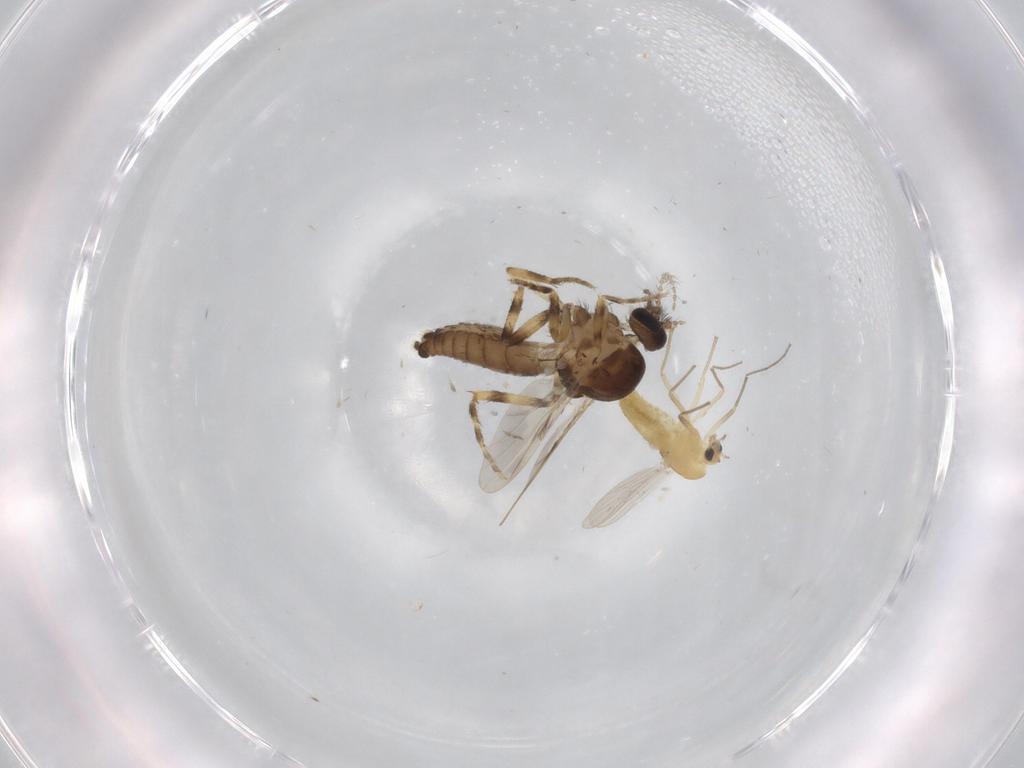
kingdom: Animalia
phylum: Arthropoda
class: Insecta
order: Diptera
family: Ceratopogonidae
